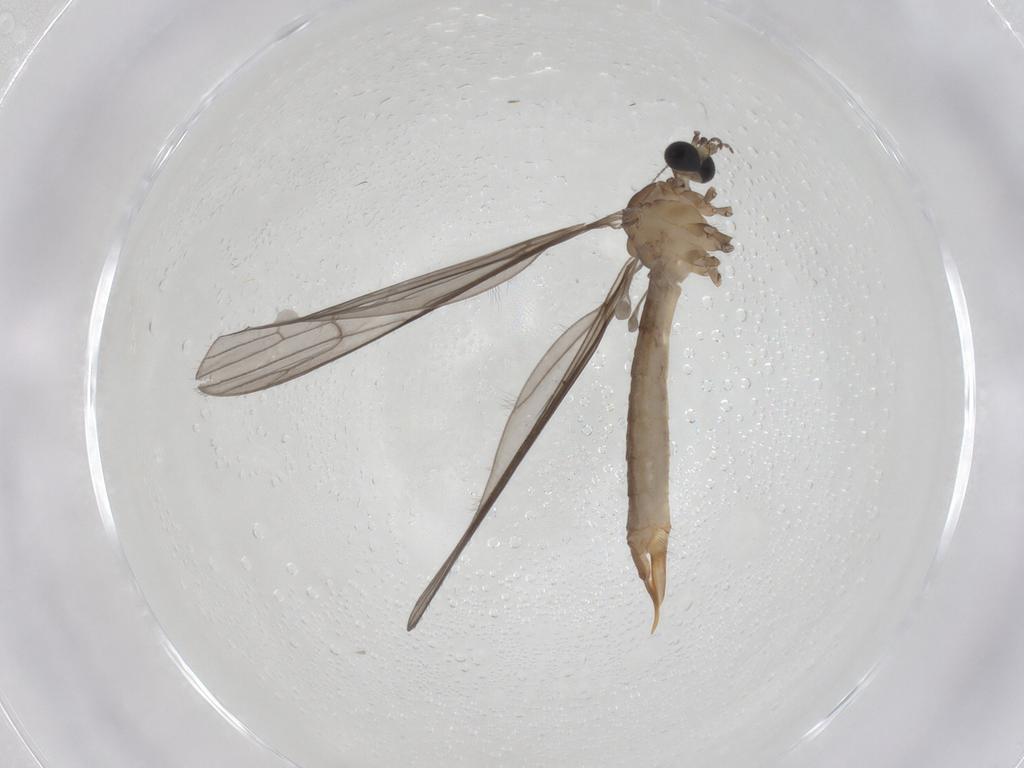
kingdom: Animalia
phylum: Arthropoda
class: Insecta
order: Diptera
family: Limoniidae
